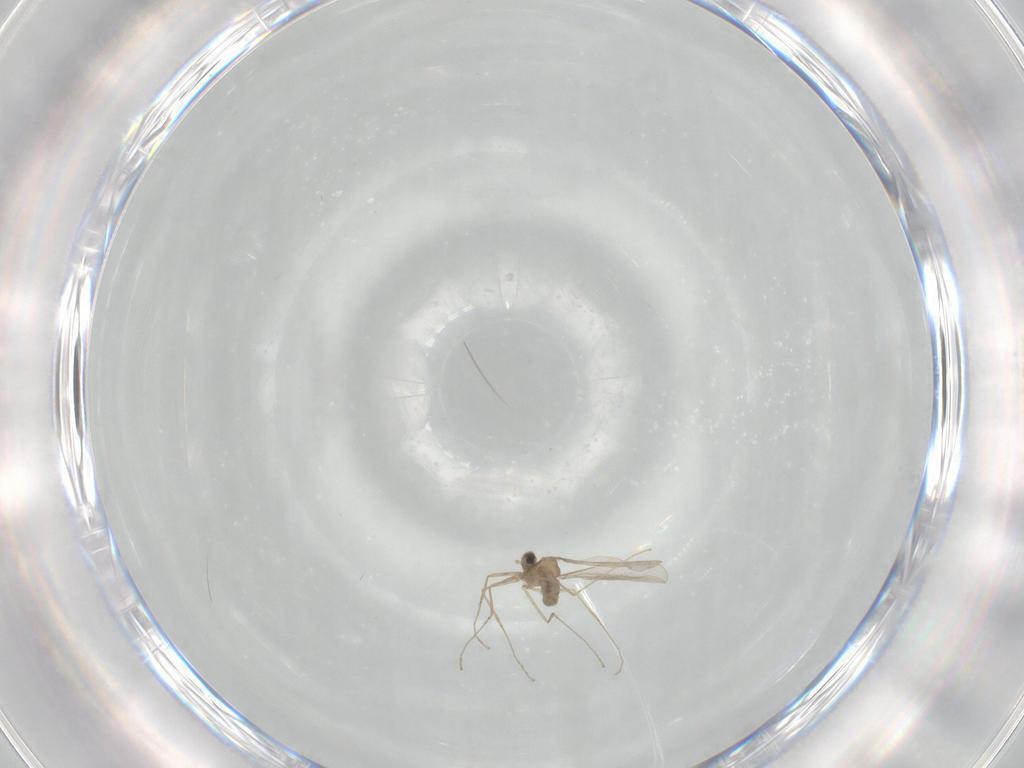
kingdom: Animalia
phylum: Arthropoda
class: Insecta
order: Diptera
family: Cecidomyiidae
